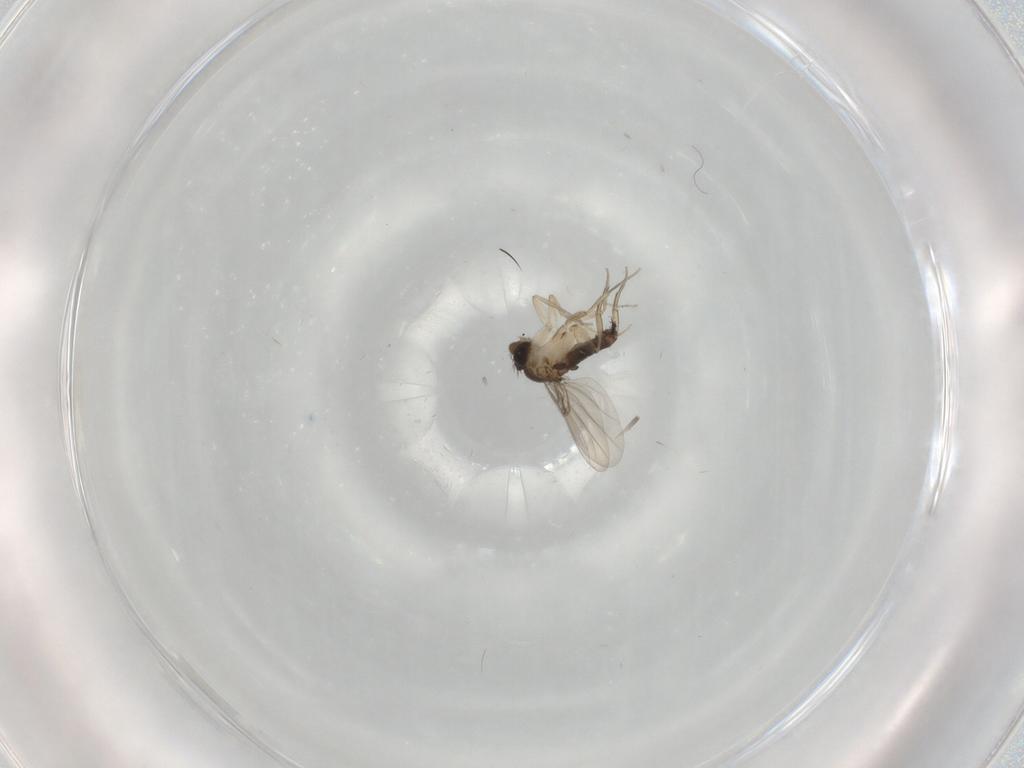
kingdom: Animalia
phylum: Arthropoda
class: Insecta
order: Diptera
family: Phoridae
